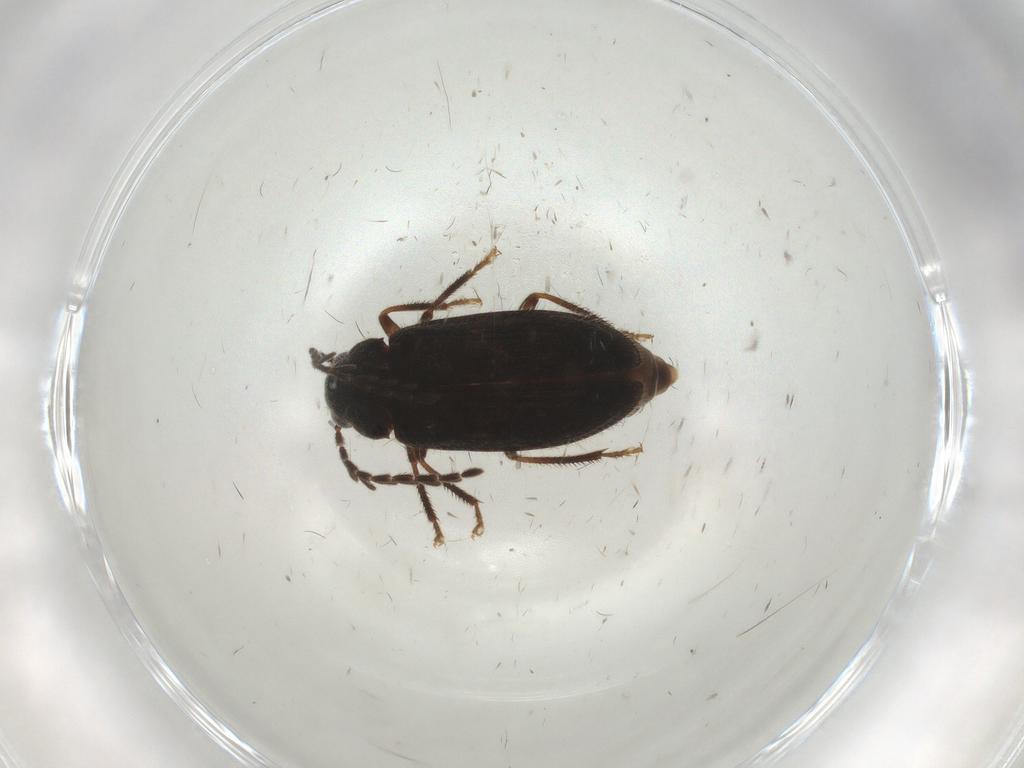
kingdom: Animalia
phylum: Arthropoda
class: Insecta
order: Coleoptera
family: Ptilodactylidae
